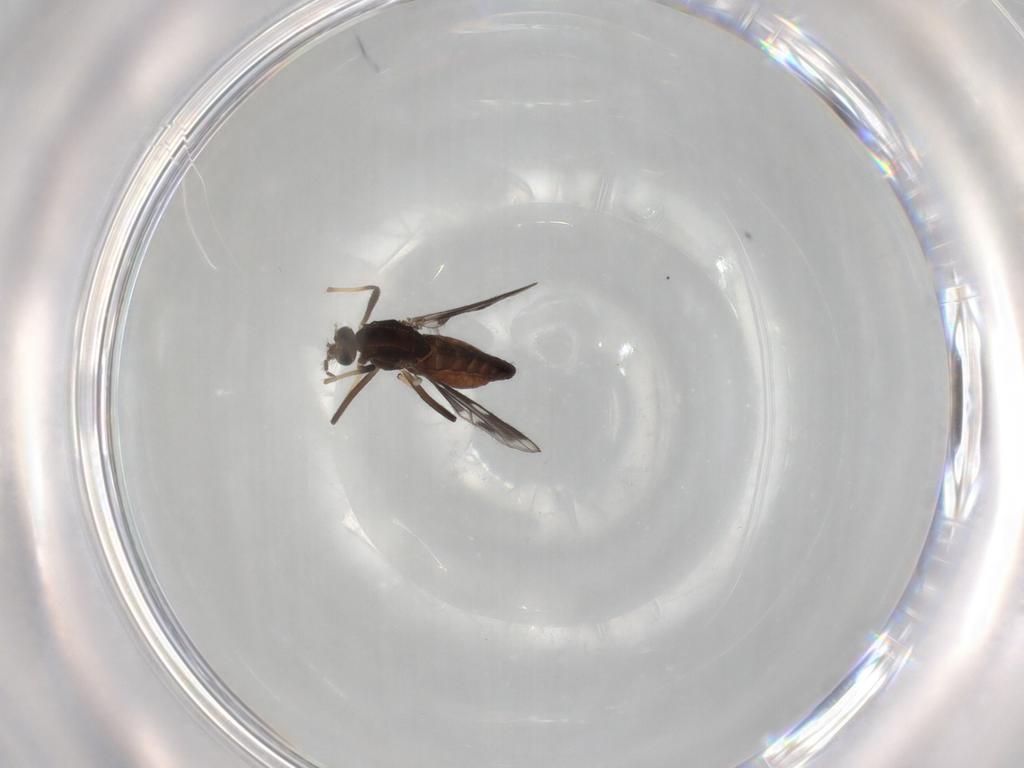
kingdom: Animalia
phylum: Arthropoda
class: Insecta
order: Diptera
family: Chironomidae
